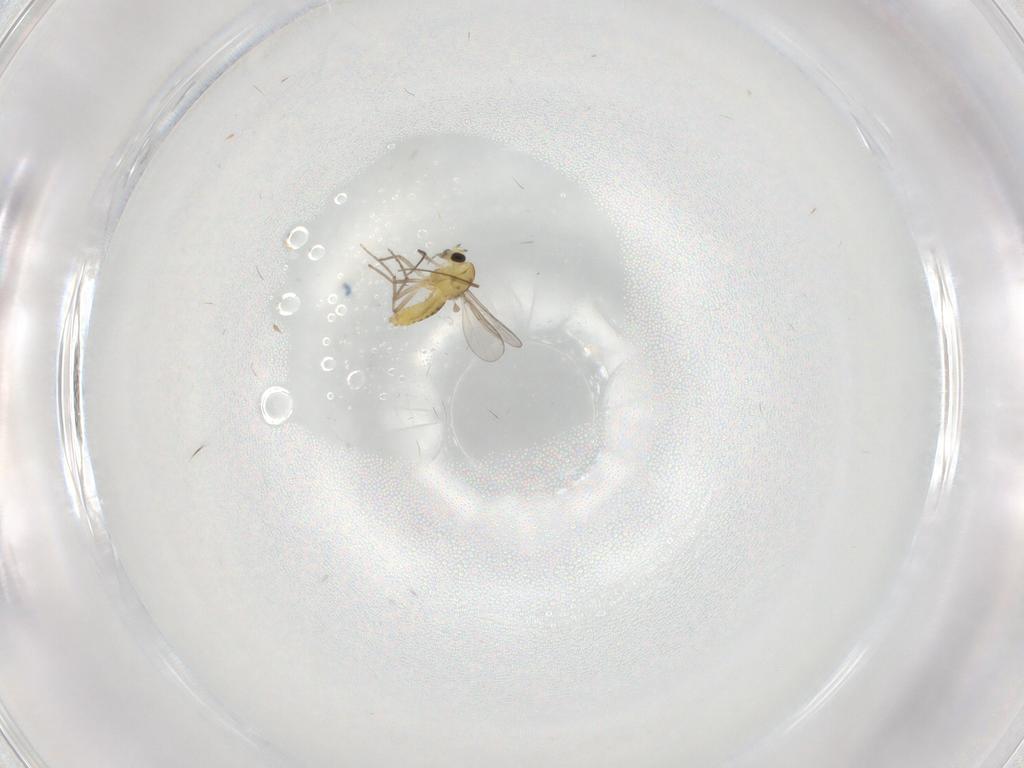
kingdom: Animalia
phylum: Arthropoda
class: Insecta
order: Diptera
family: Chironomidae
